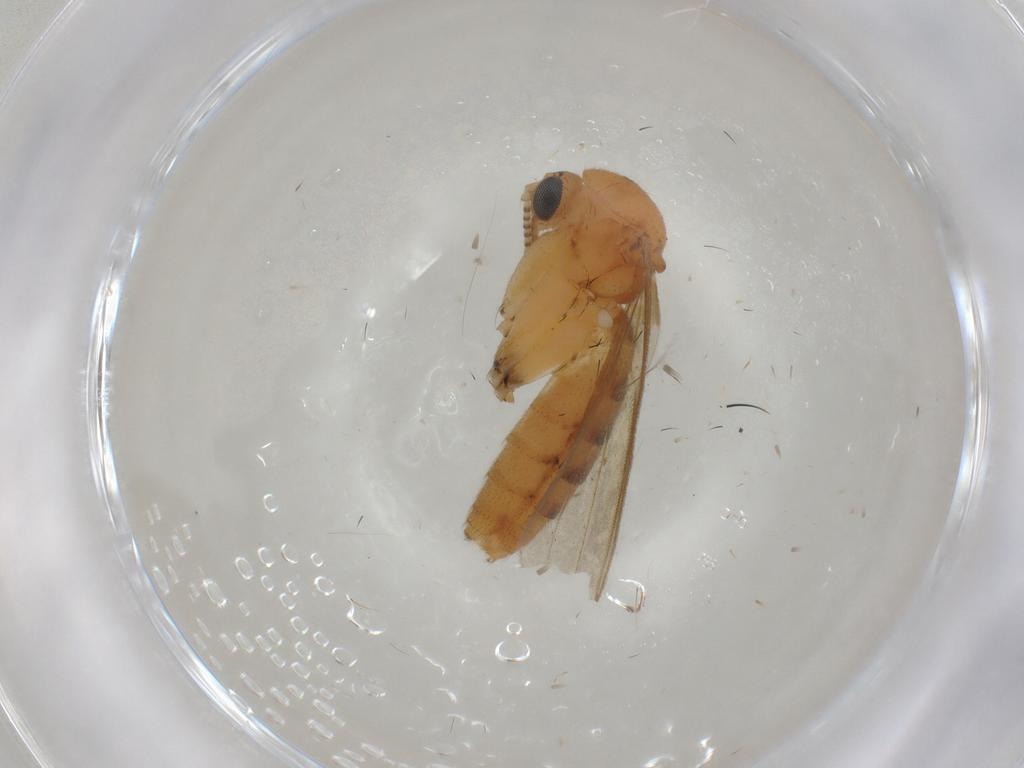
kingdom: Animalia
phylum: Arthropoda
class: Insecta
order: Diptera
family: Mycetophilidae
